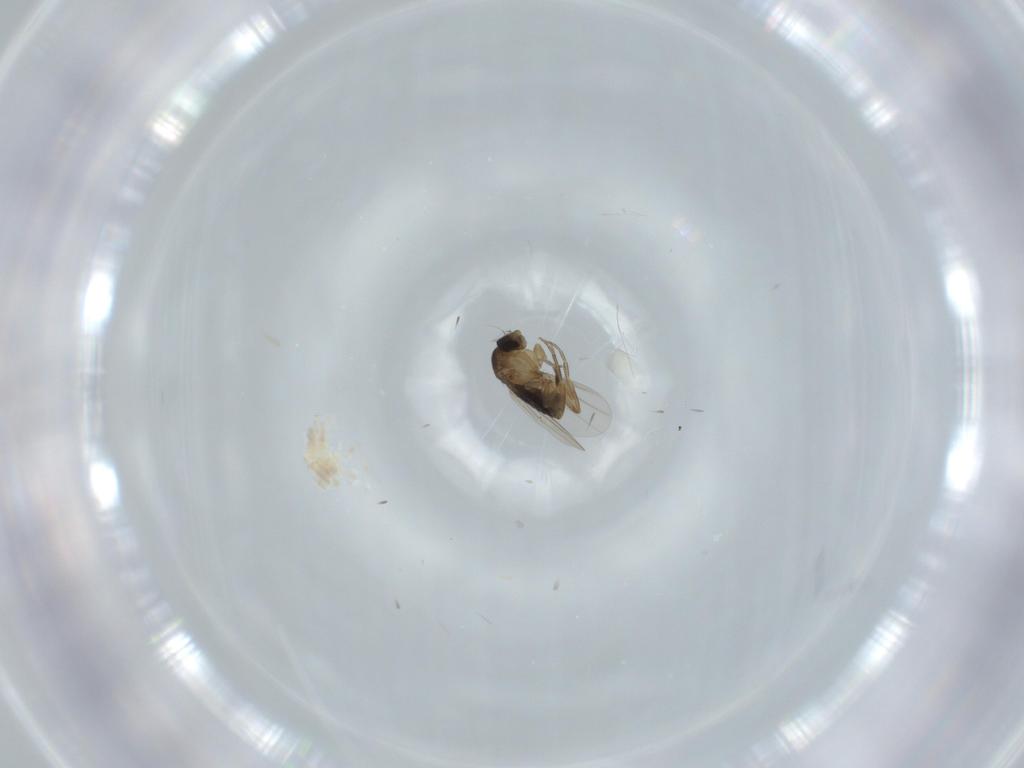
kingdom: Animalia
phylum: Arthropoda
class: Insecta
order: Diptera
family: Phoridae
